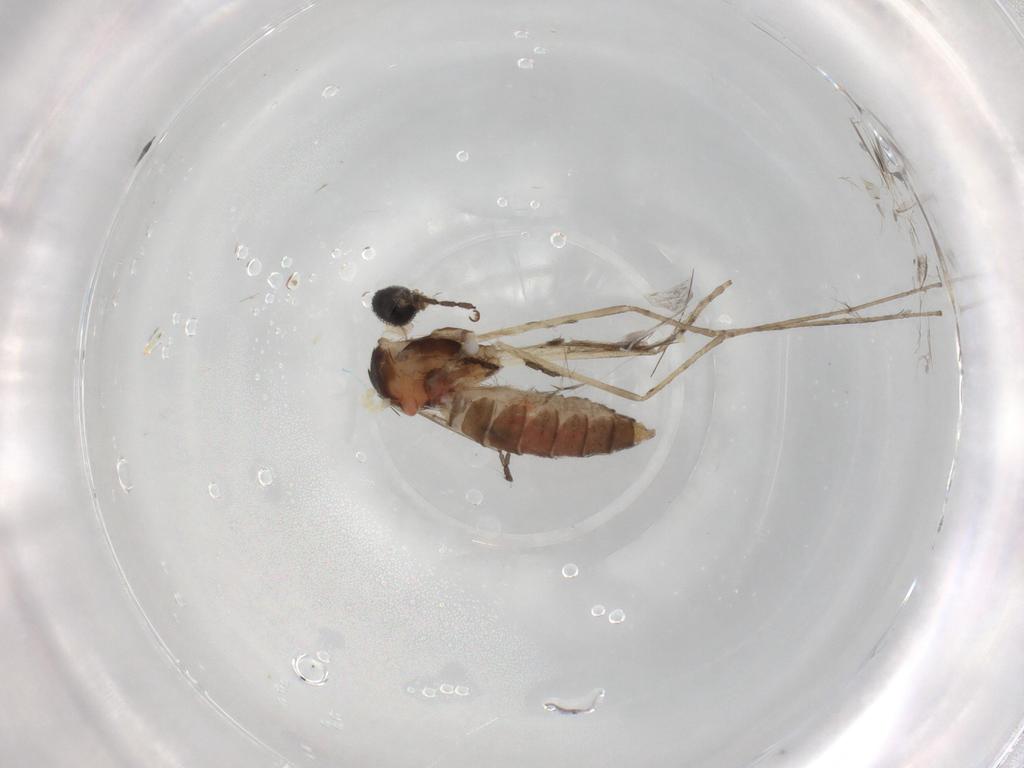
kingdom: Animalia
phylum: Arthropoda
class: Insecta
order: Diptera
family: Cecidomyiidae
